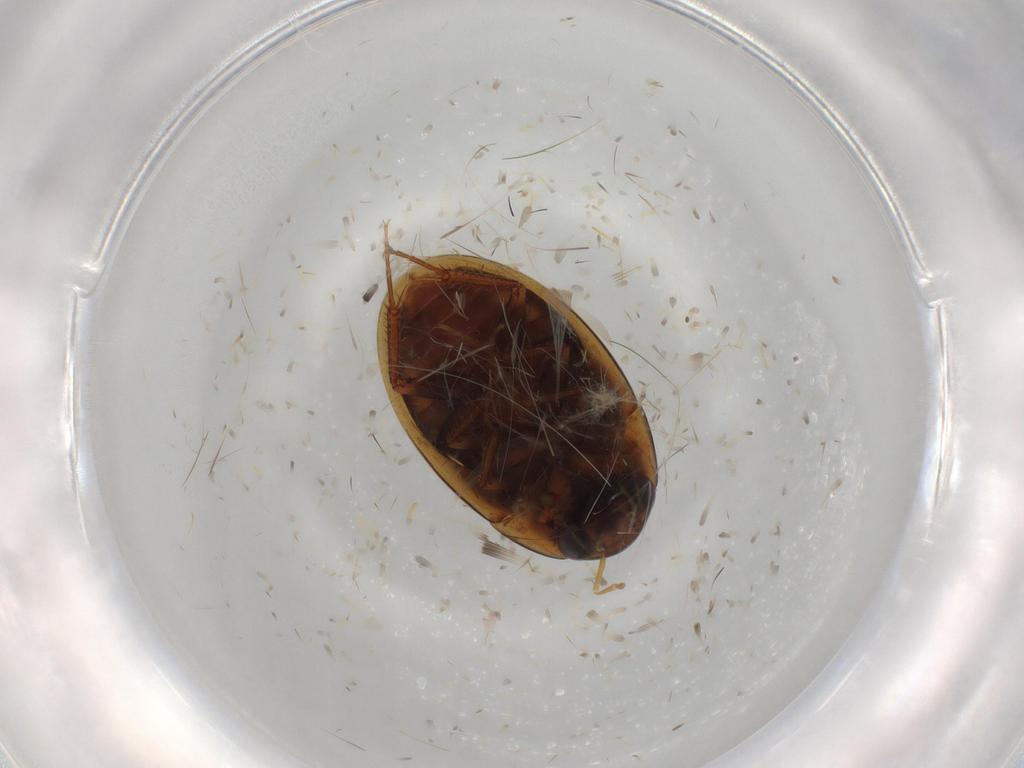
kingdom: Animalia
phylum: Arthropoda
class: Insecta
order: Coleoptera
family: Hydrophilidae
